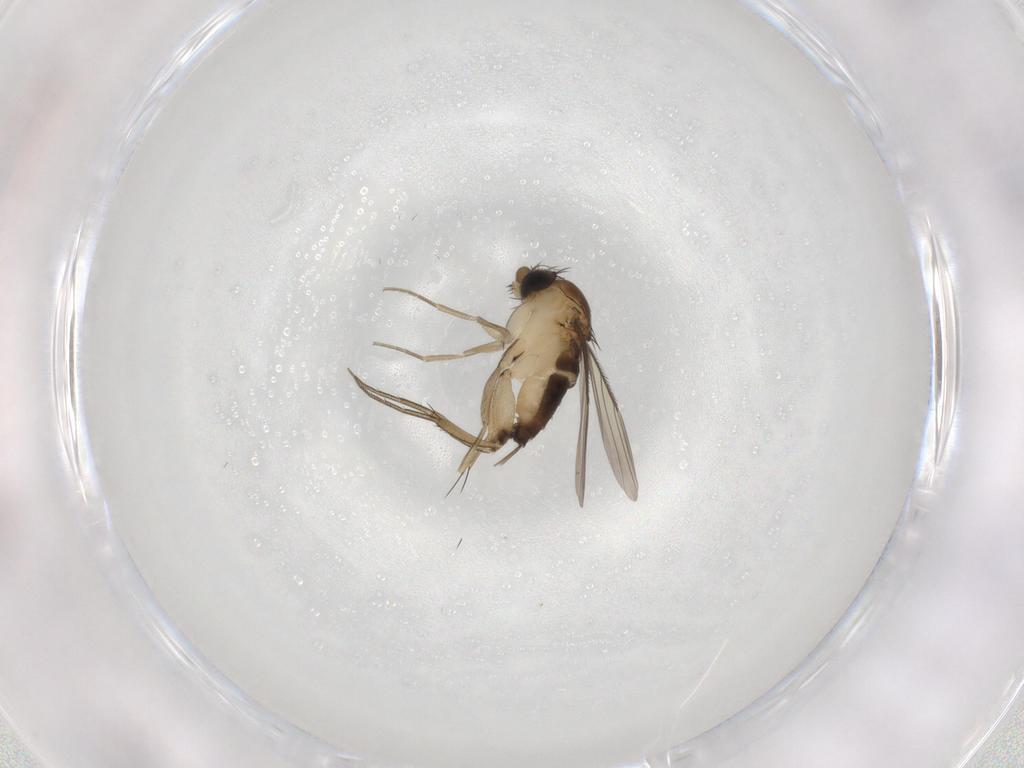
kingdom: Animalia
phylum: Arthropoda
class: Insecta
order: Diptera
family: Phoridae
